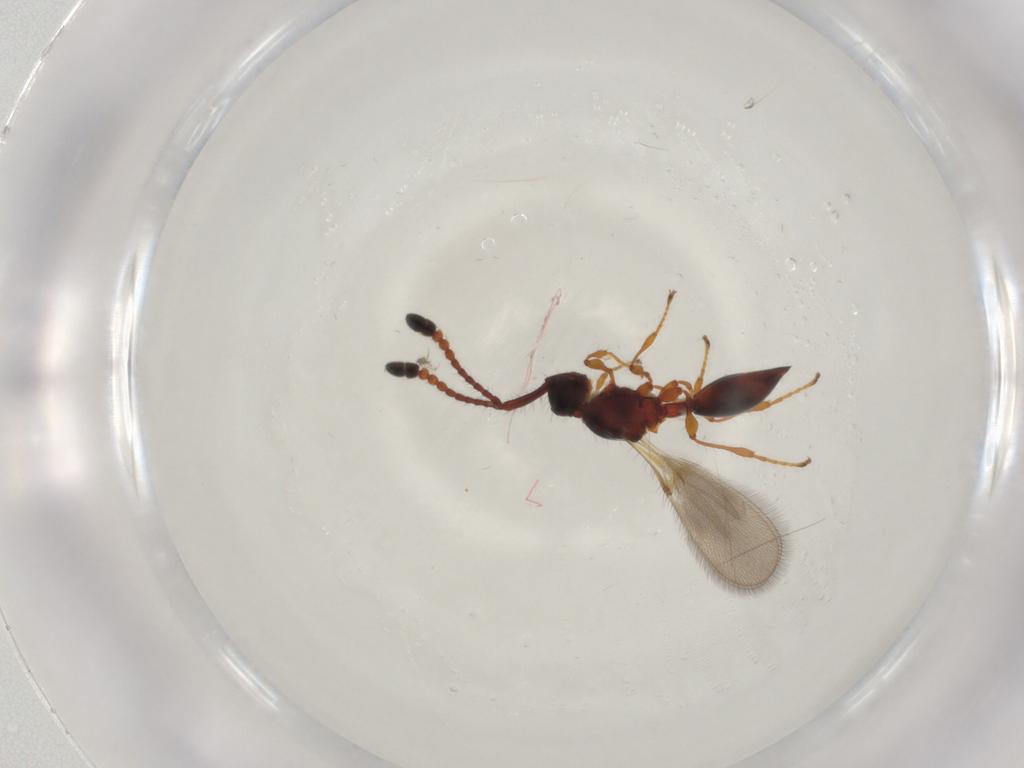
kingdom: Animalia
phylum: Arthropoda
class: Insecta
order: Hymenoptera
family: Diapriidae
